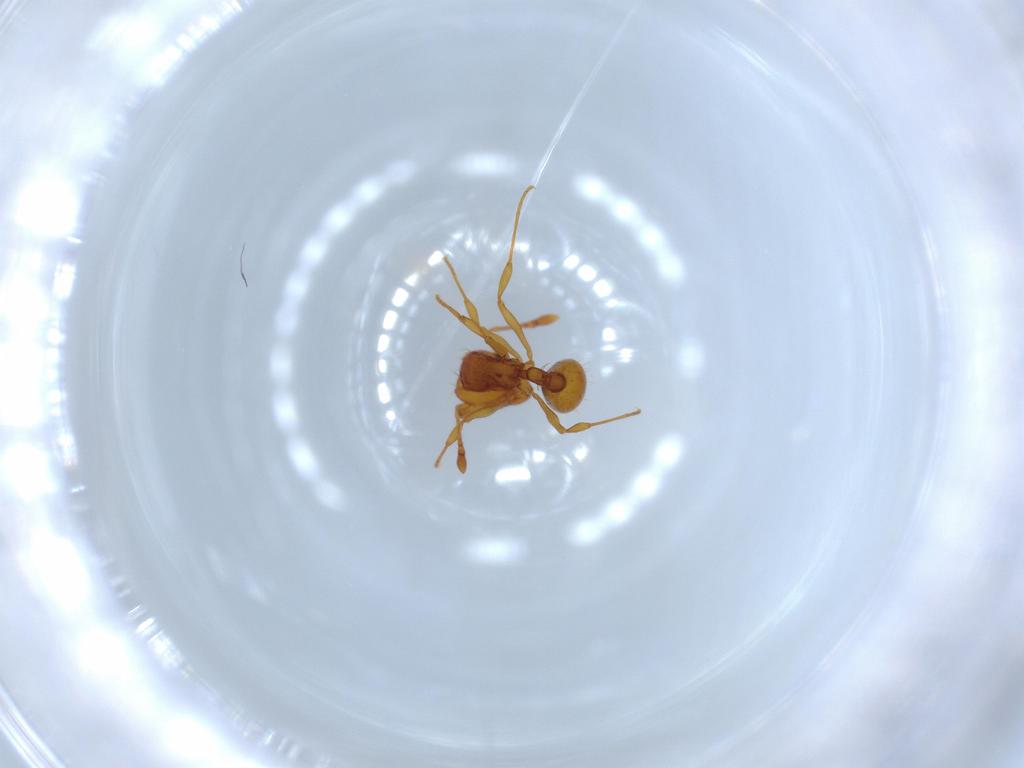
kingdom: Animalia
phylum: Arthropoda
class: Insecta
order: Hymenoptera
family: Formicidae
